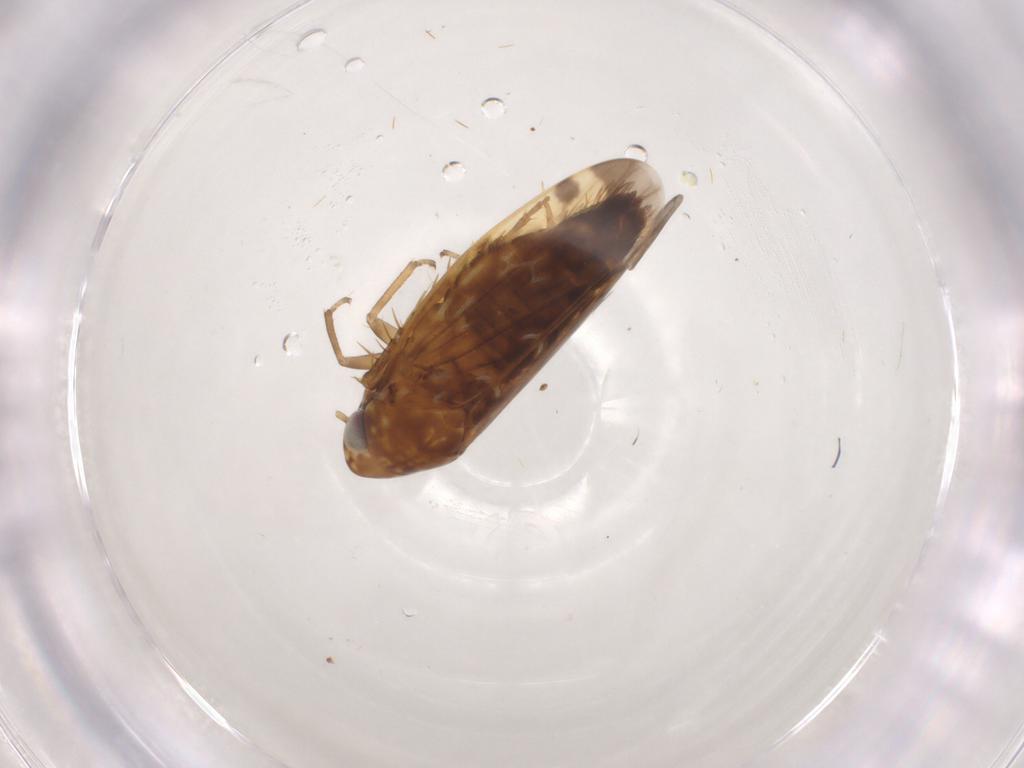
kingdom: Animalia
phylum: Arthropoda
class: Insecta
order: Hemiptera
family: Cicadellidae
